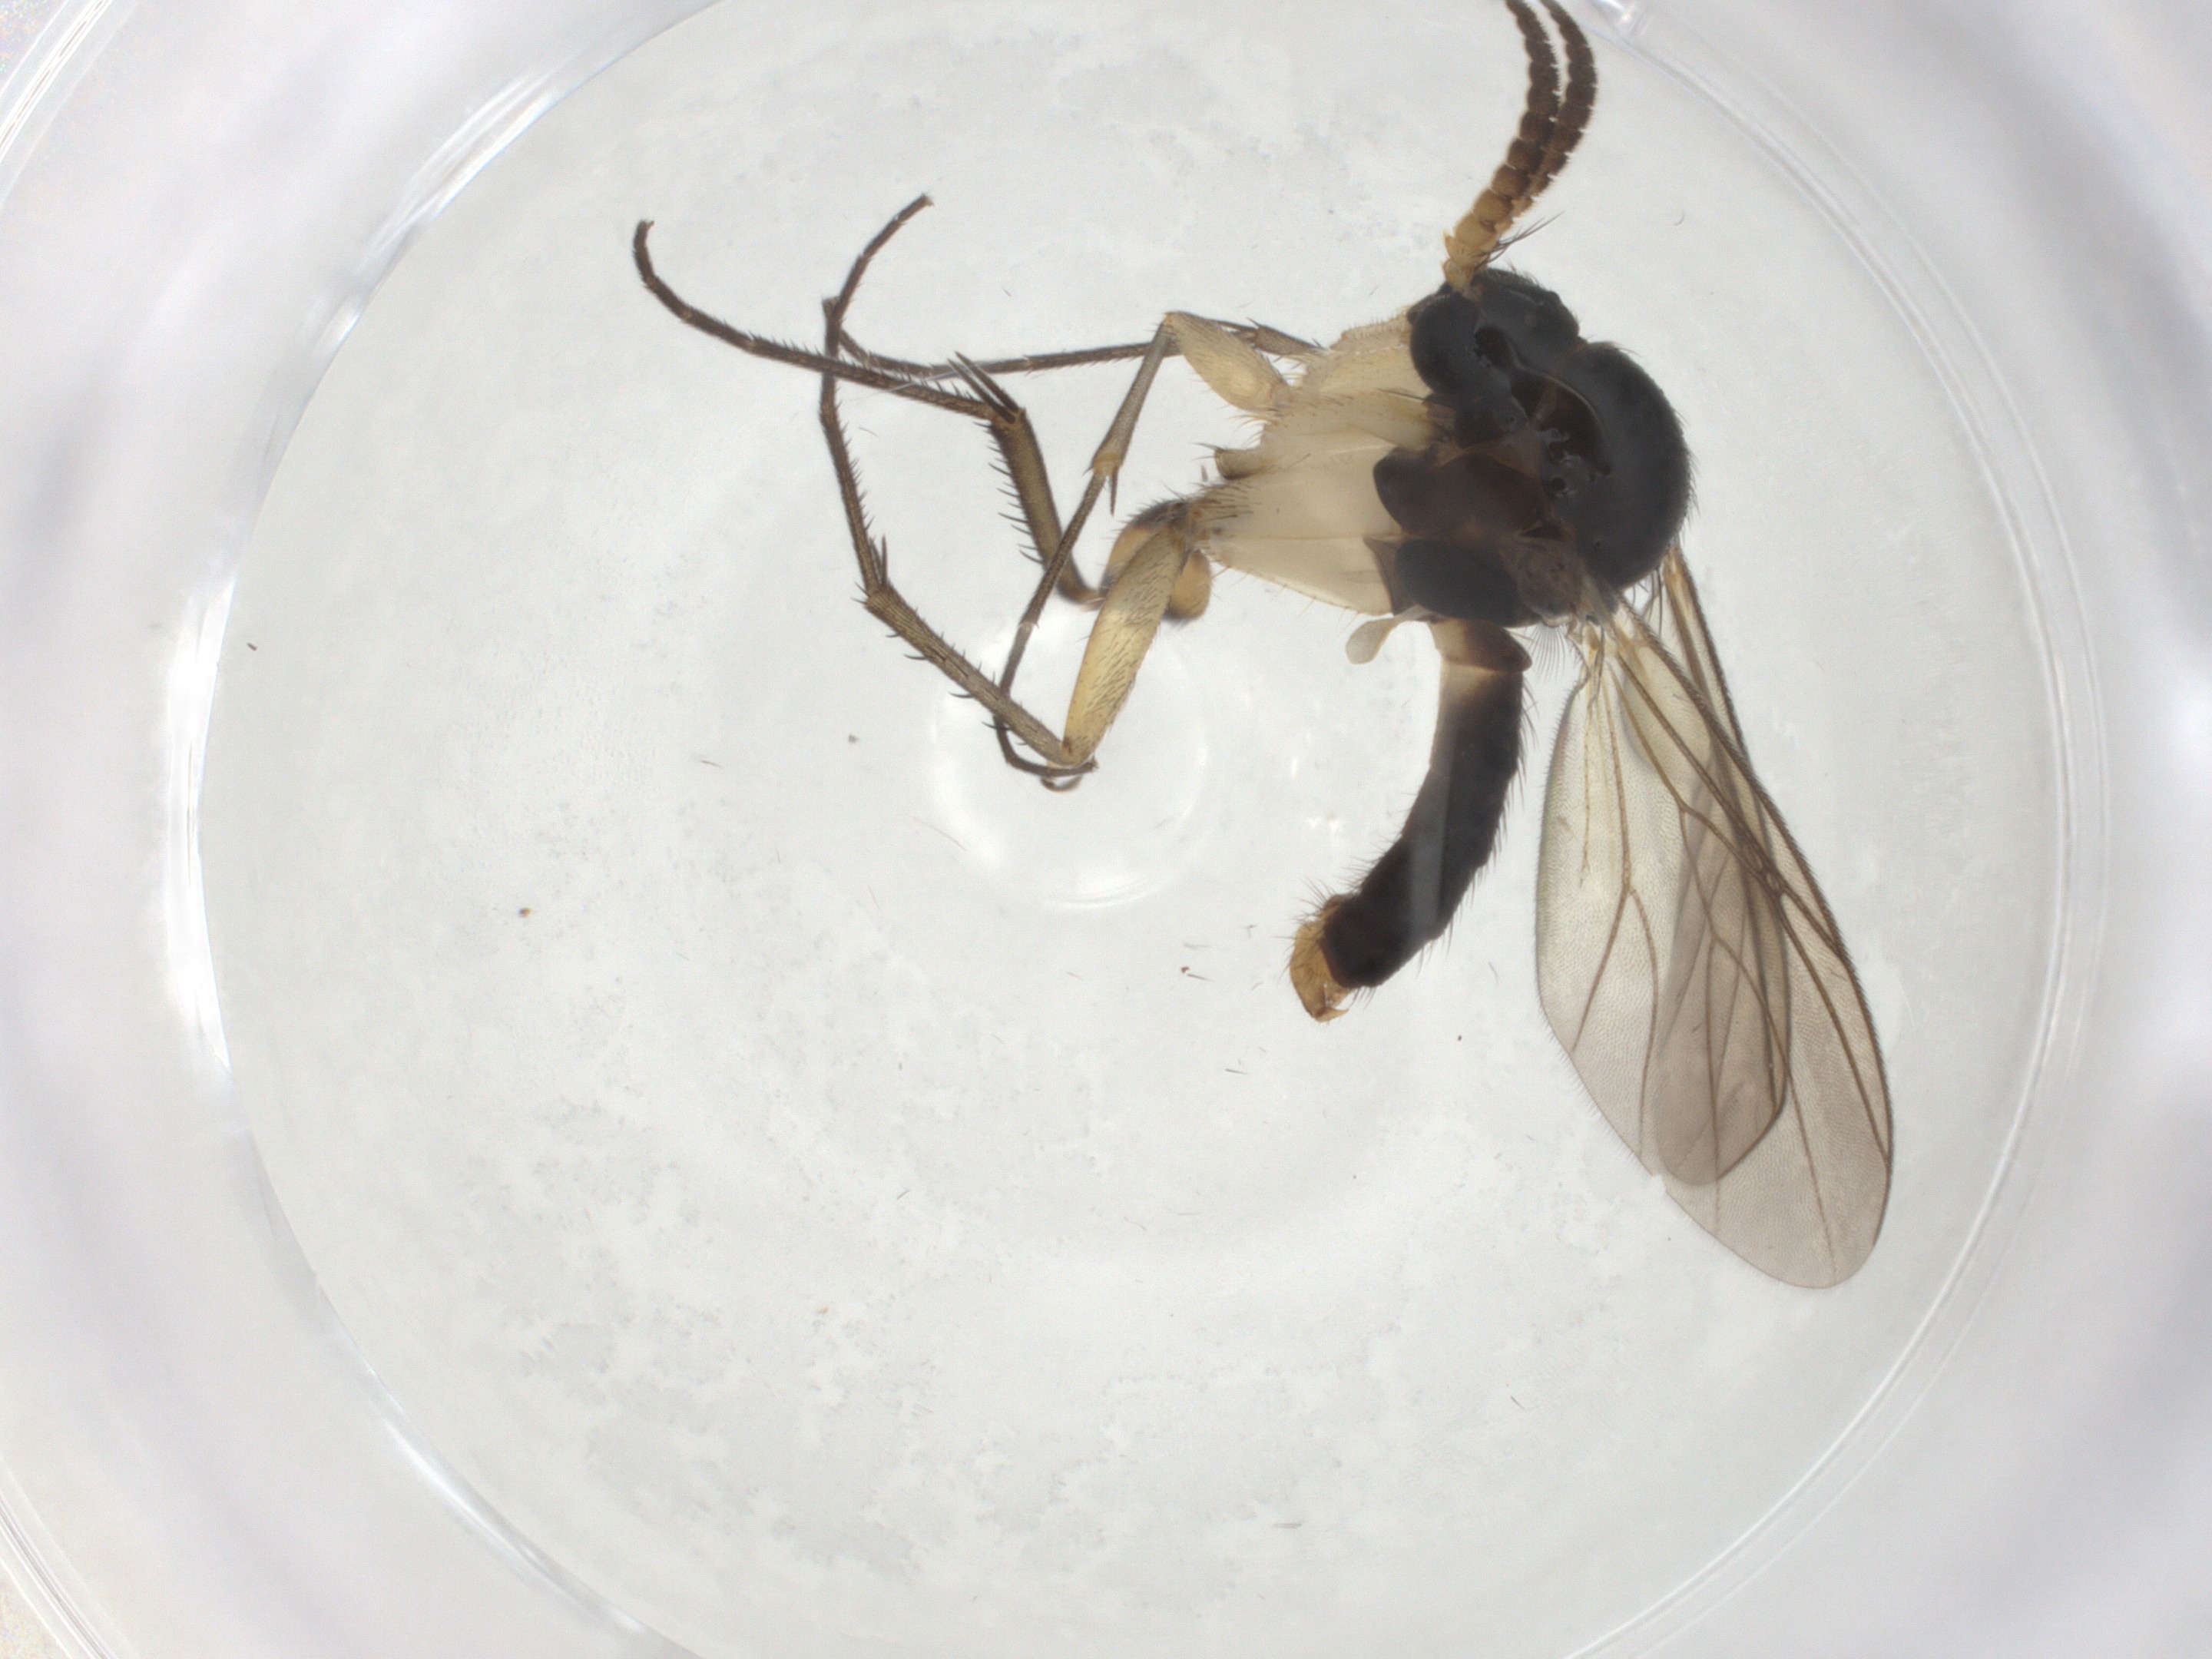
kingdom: Animalia
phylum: Arthropoda
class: Insecta
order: Diptera
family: Mycetophilidae
